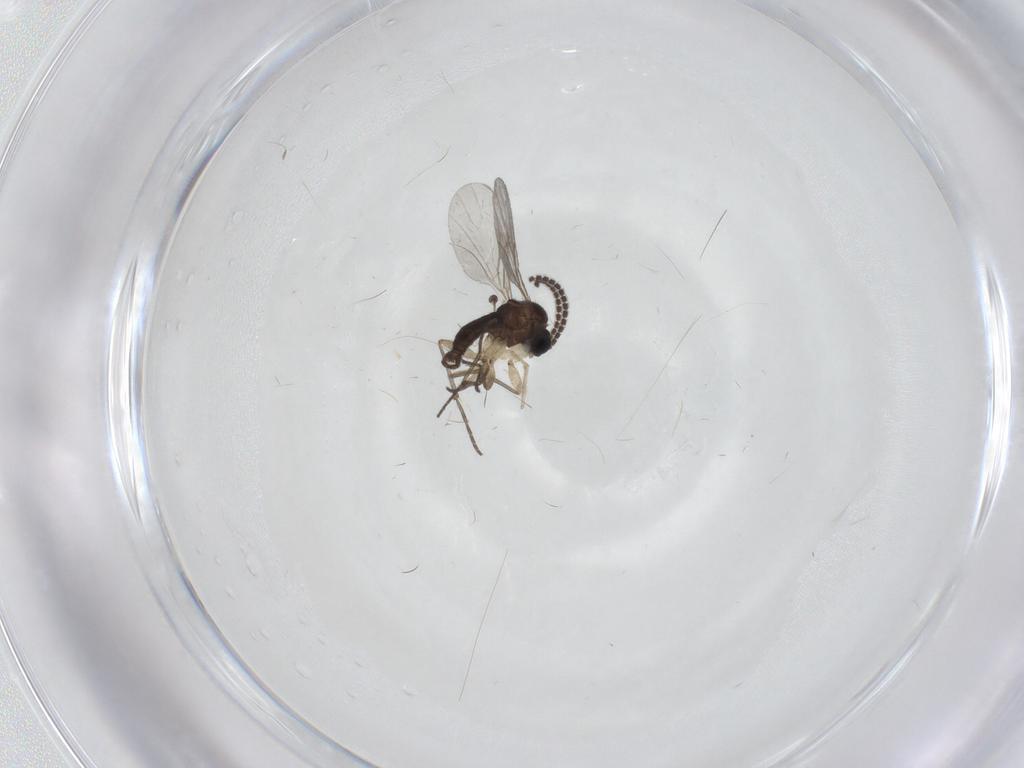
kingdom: Animalia
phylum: Arthropoda
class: Insecta
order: Diptera
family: Sciaridae
